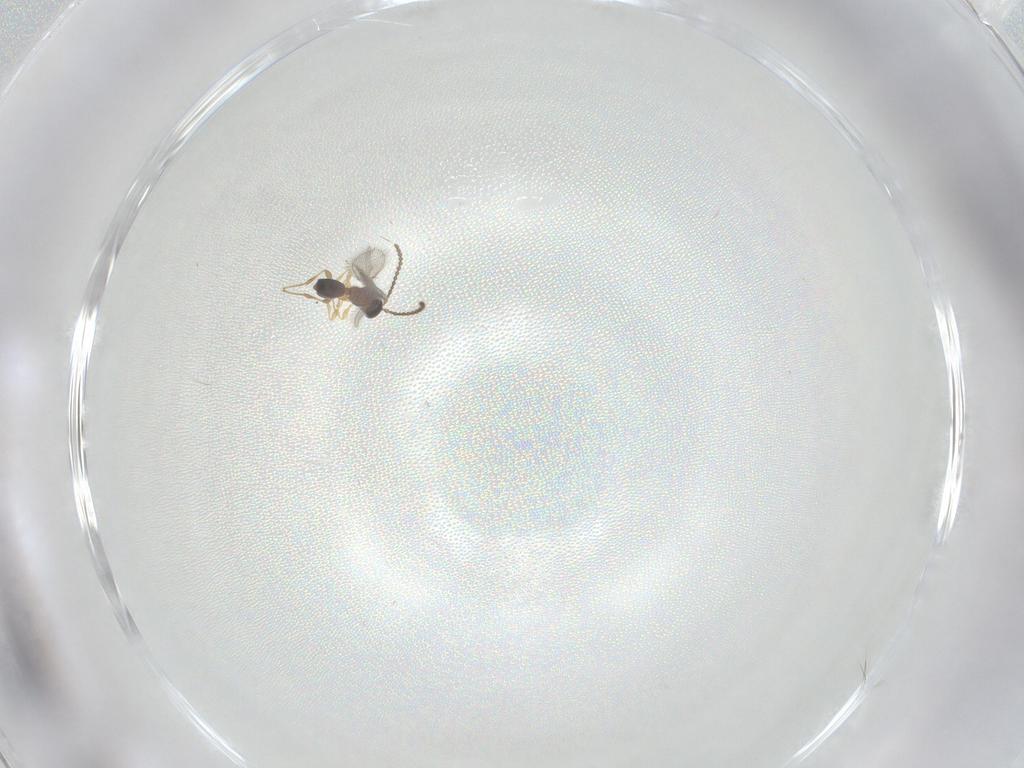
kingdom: Animalia
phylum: Arthropoda
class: Insecta
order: Hymenoptera
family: Diapriidae
